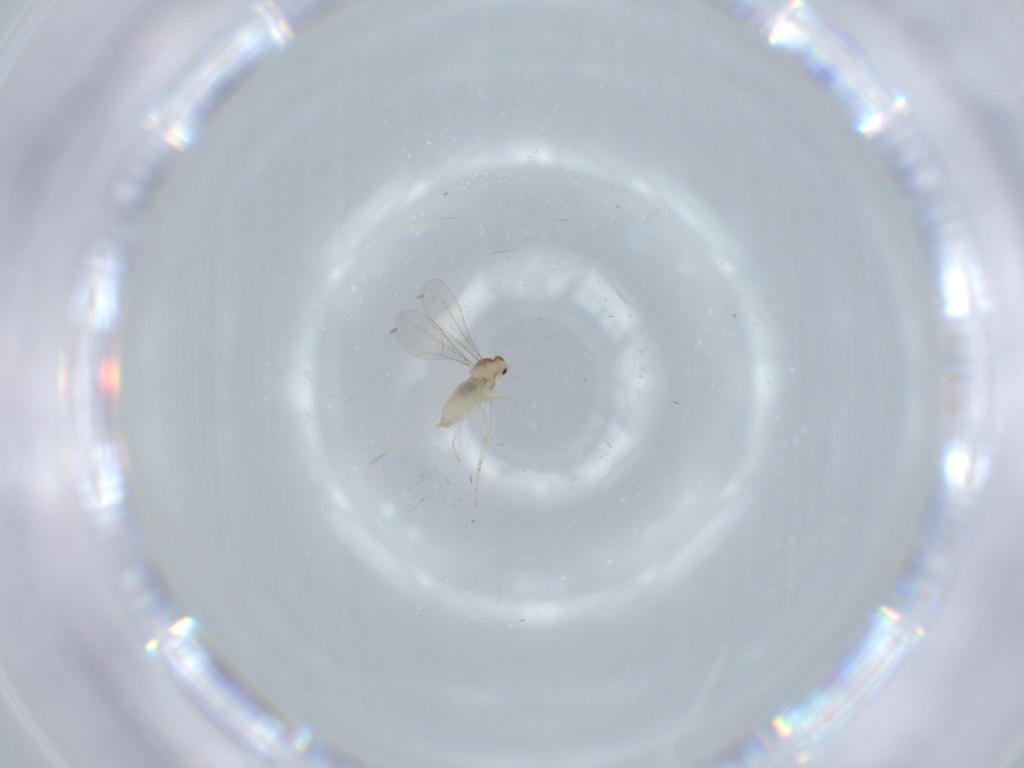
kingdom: Animalia
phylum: Arthropoda
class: Insecta
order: Diptera
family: Cecidomyiidae
